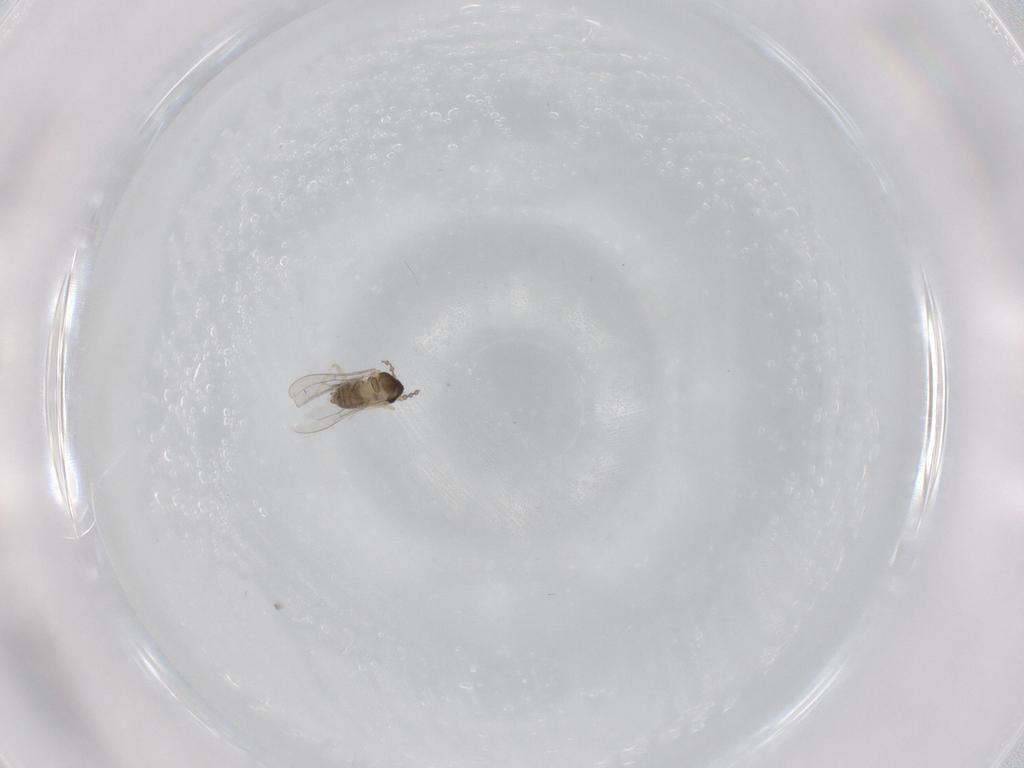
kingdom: Animalia
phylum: Arthropoda
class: Insecta
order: Diptera
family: Cecidomyiidae
